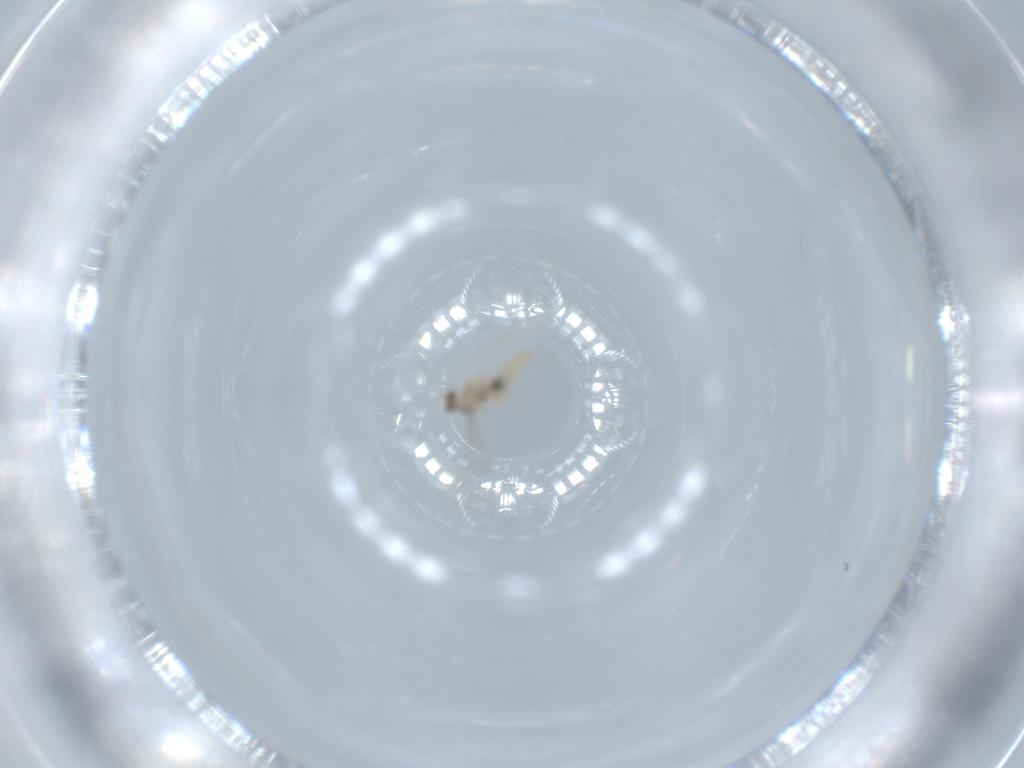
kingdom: Animalia
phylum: Arthropoda
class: Insecta
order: Diptera
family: Cecidomyiidae
